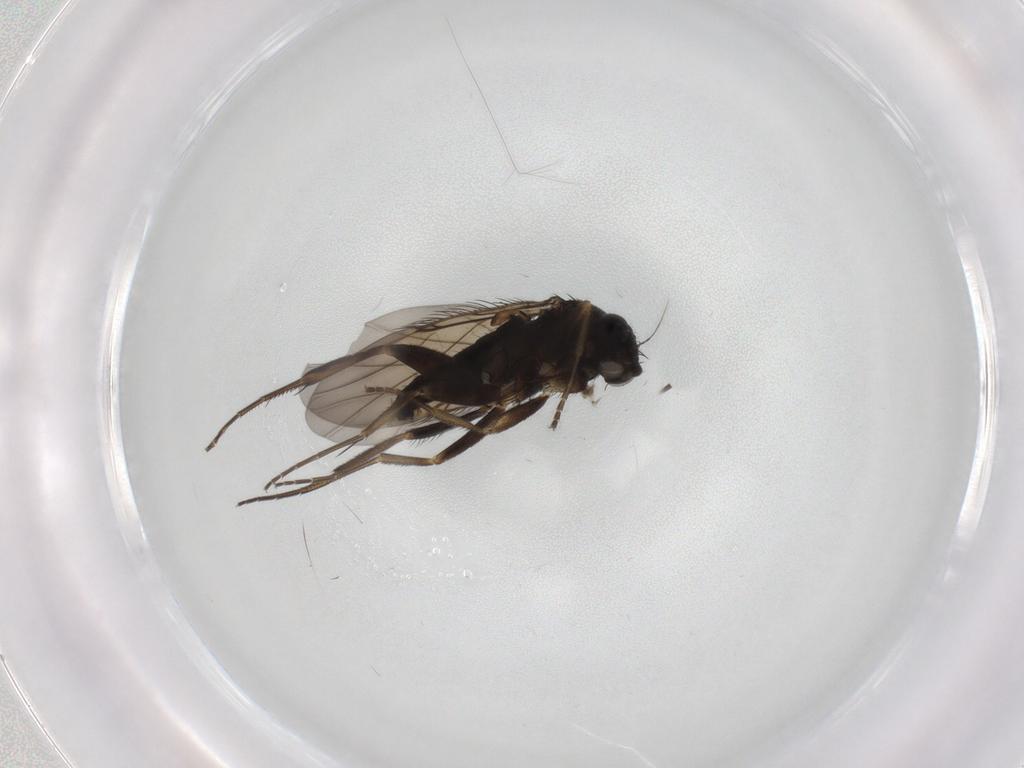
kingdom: Animalia
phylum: Arthropoda
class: Insecta
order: Diptera
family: Phoridae
